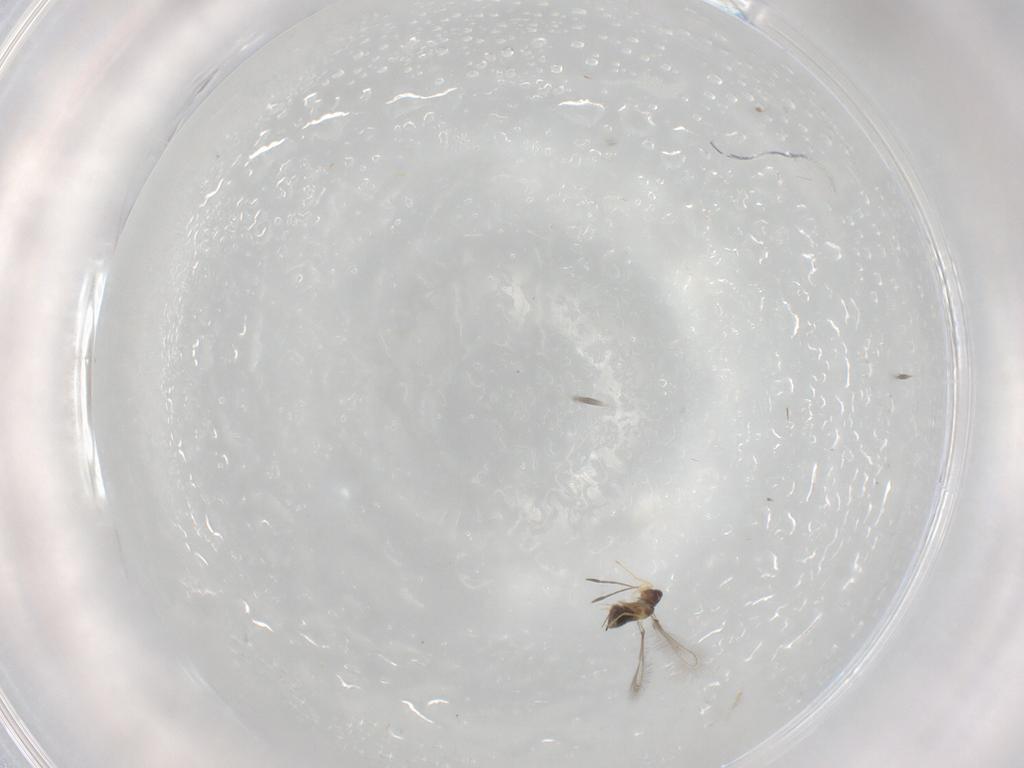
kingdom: Animalia
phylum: Arthropoda
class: Insecta
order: Hymenoptera
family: Mymaridae
